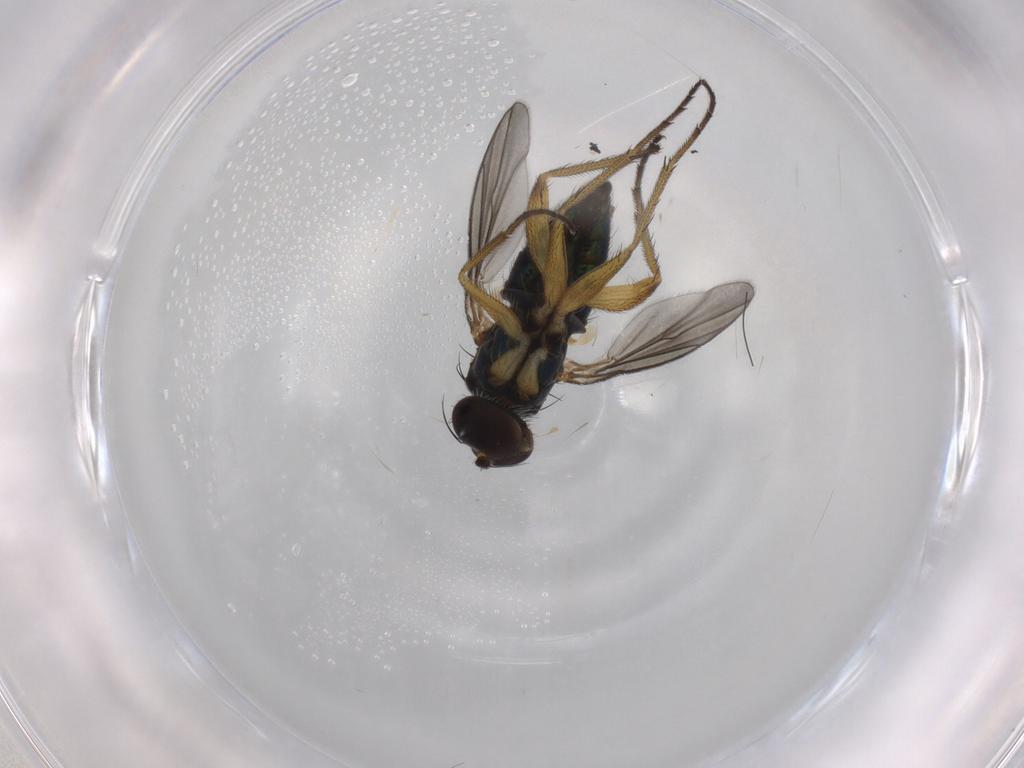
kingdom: Animalia
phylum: Arthropoda
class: Insecta
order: Diptera
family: Chironomidae
